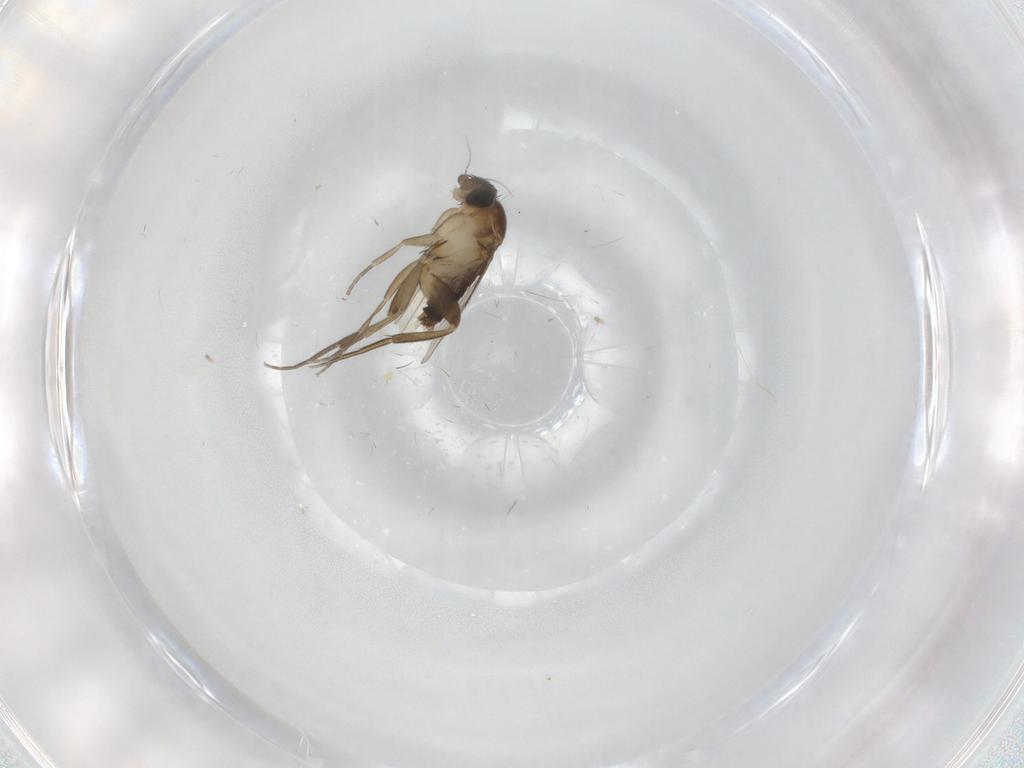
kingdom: Animalia
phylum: Arthropoda
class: Insecta
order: Diptera
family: Phoridae
